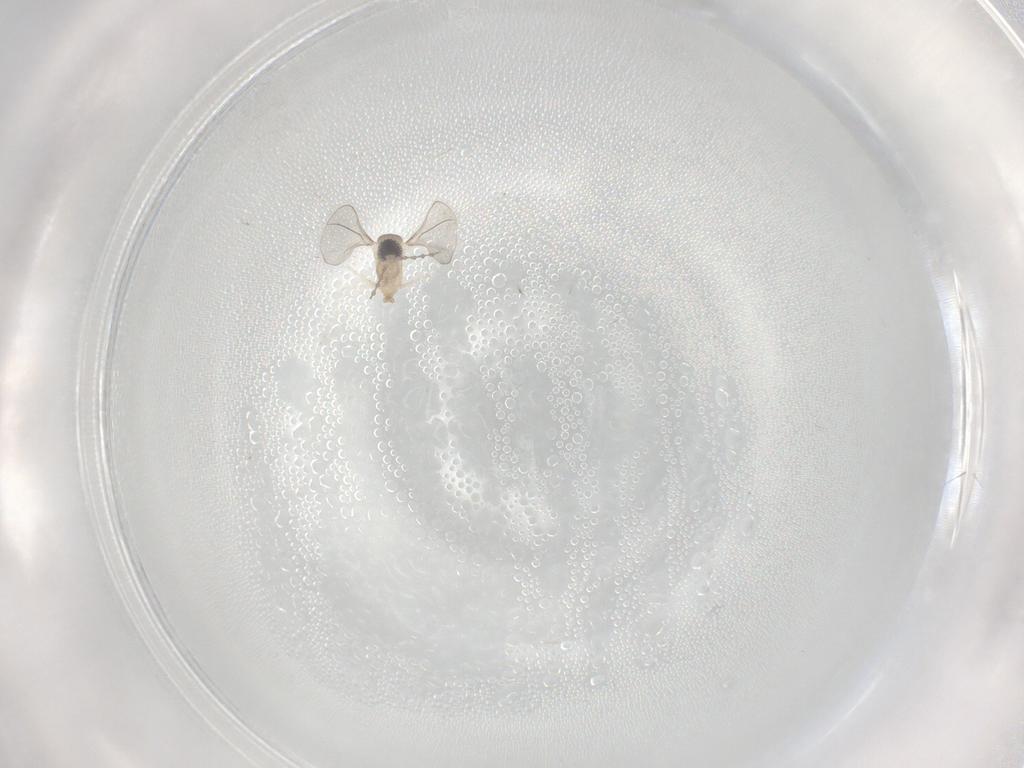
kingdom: Animalia
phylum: Arthropoda
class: Insecta
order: Diptera
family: Cecidomyiidae
